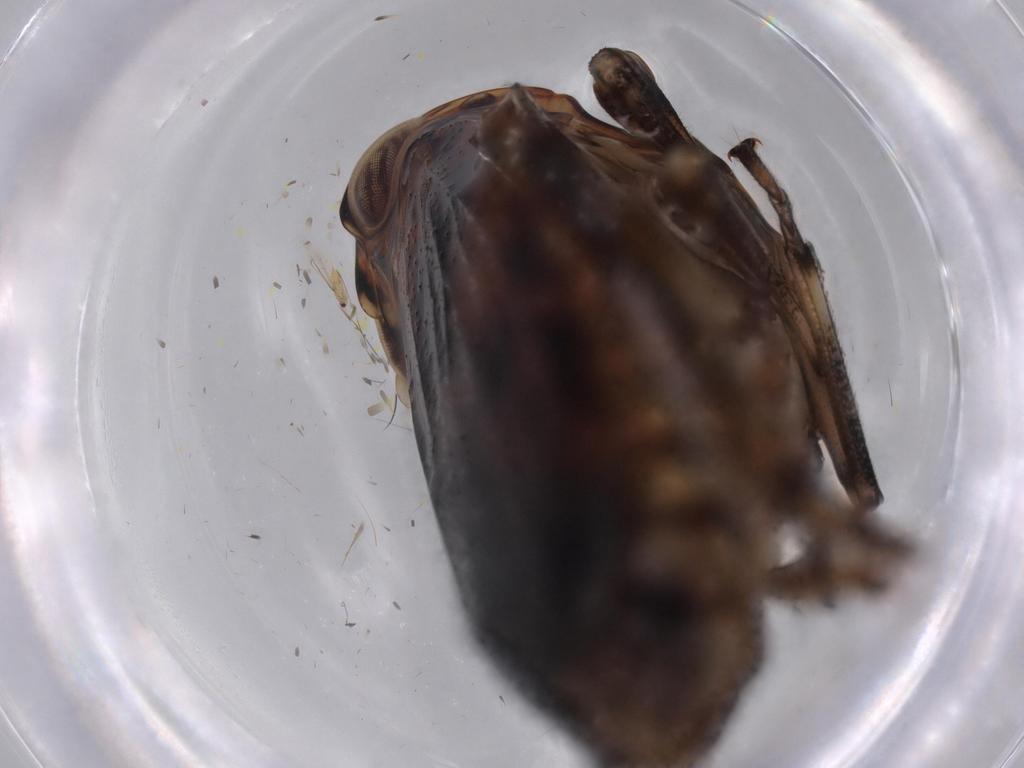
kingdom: Animalia
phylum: Arthropoda
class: Insecta
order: Hemiptera
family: Issidae
